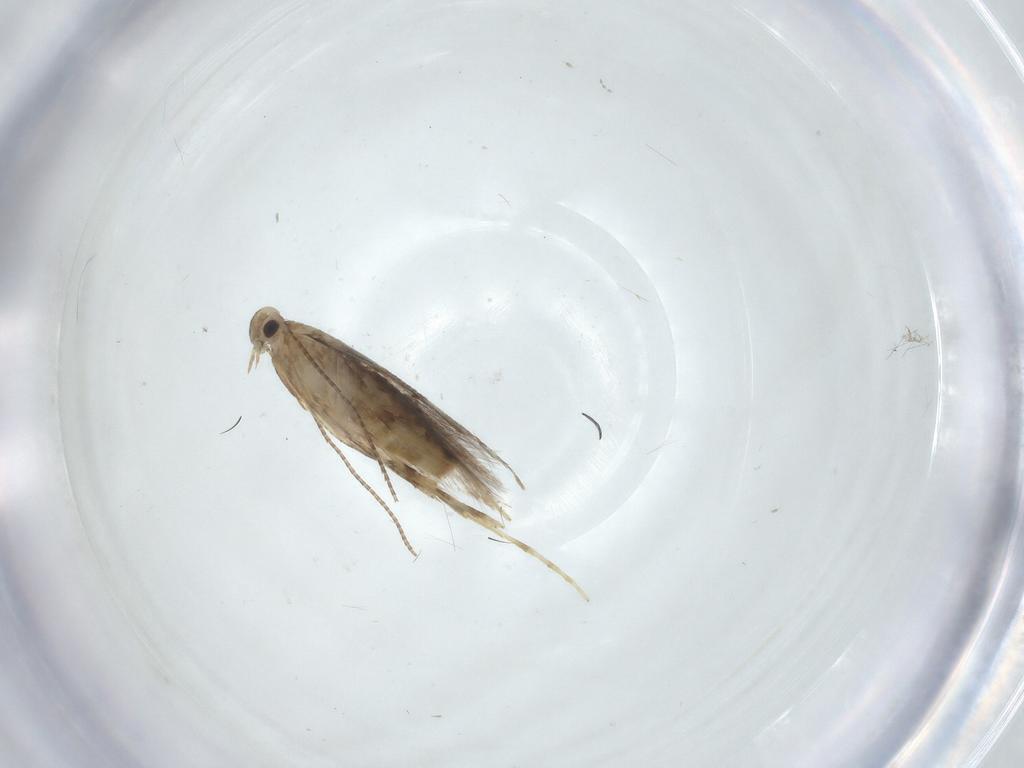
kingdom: Animalia
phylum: Arthropoda
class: Insecta
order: Lepidoptera
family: Gracillariidae
